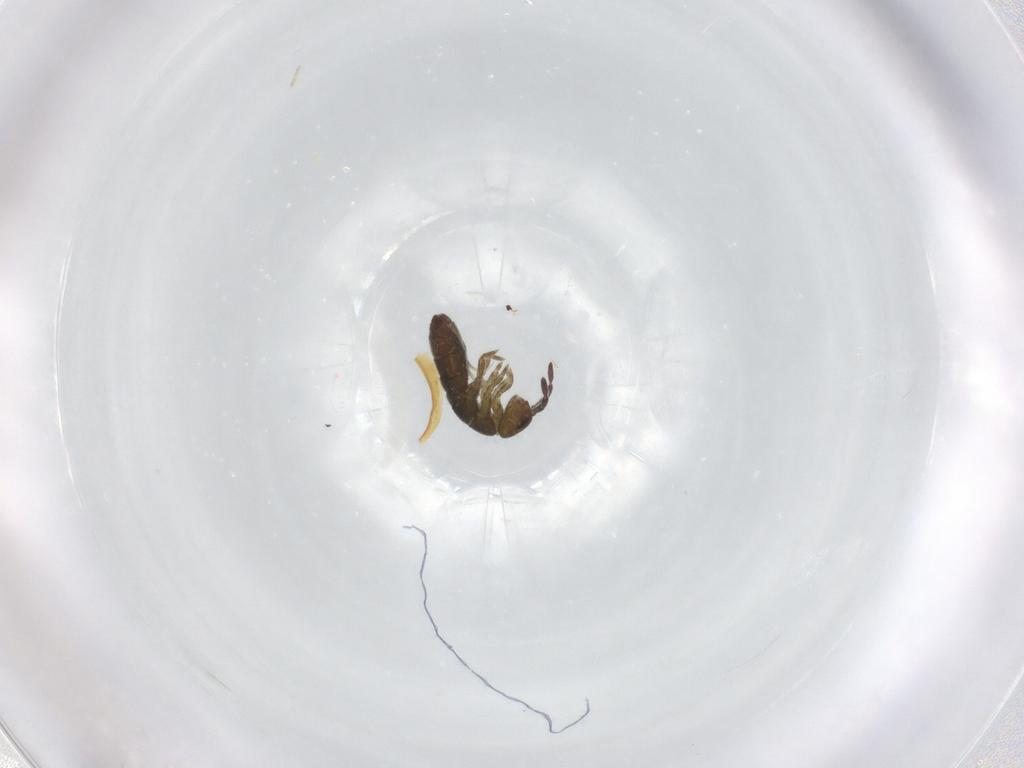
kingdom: Animalia
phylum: Arthropoda
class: Collembola
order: Entomobryomorpha
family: Isotomidae
